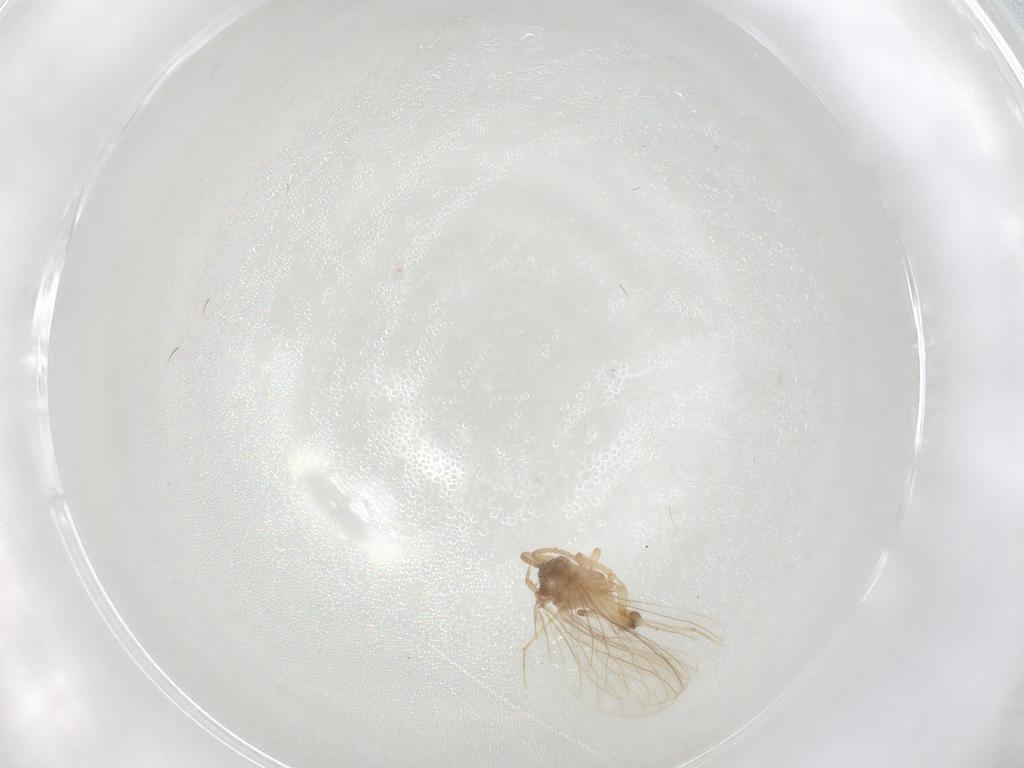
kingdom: Animalia
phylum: Arthropoda
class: Insecta
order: Neuroptera
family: Coniopterygidae
